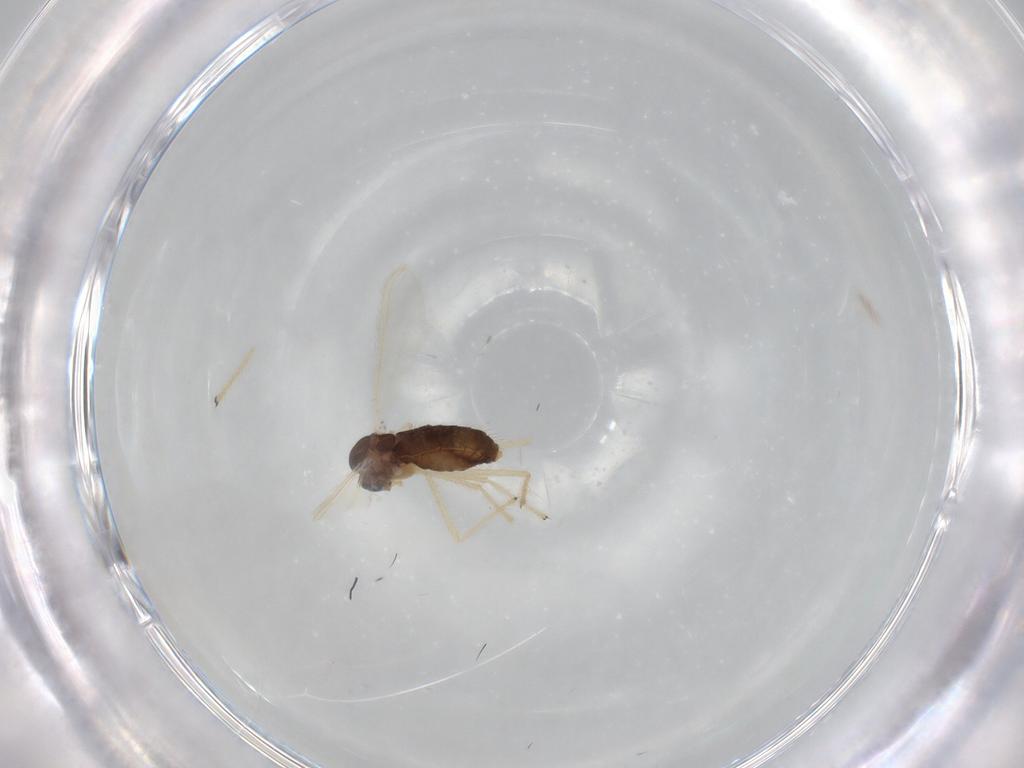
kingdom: Animalia
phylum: Arthropoda
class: Insecta
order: Diptera
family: Chironomidae
